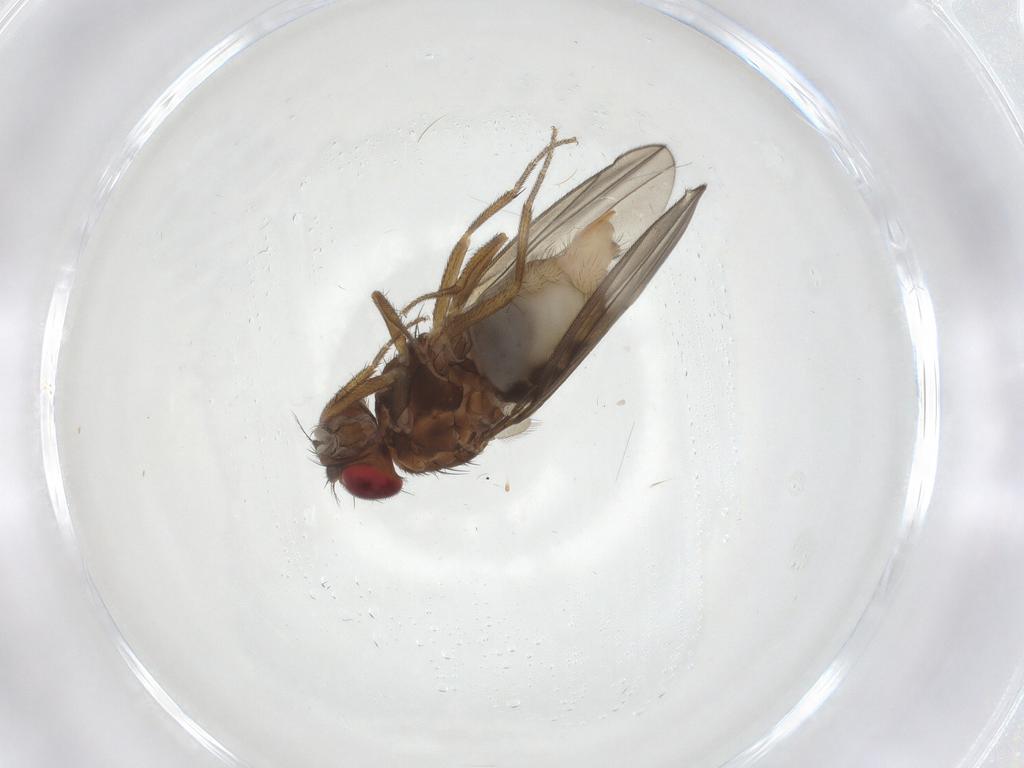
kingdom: Animalia
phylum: Arthropoda
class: Insecta
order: Diptera
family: Drosophilidae
